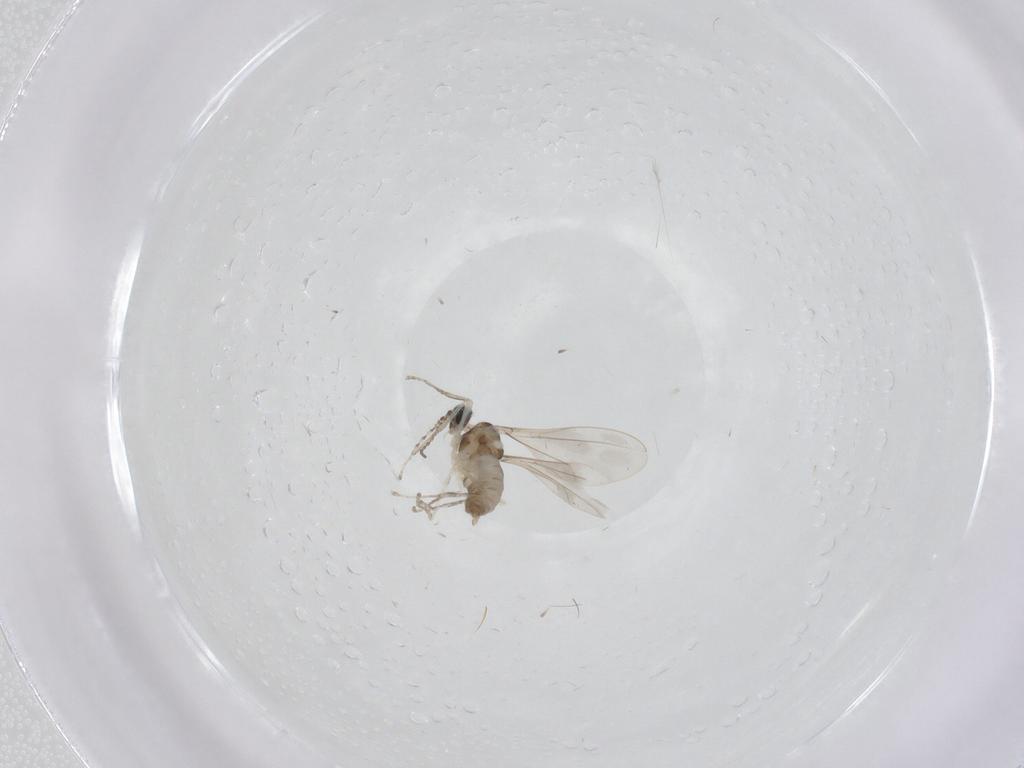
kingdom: Animalia
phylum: Arthropoda
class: Insecta
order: Diptera
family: Cecidomyiidae
